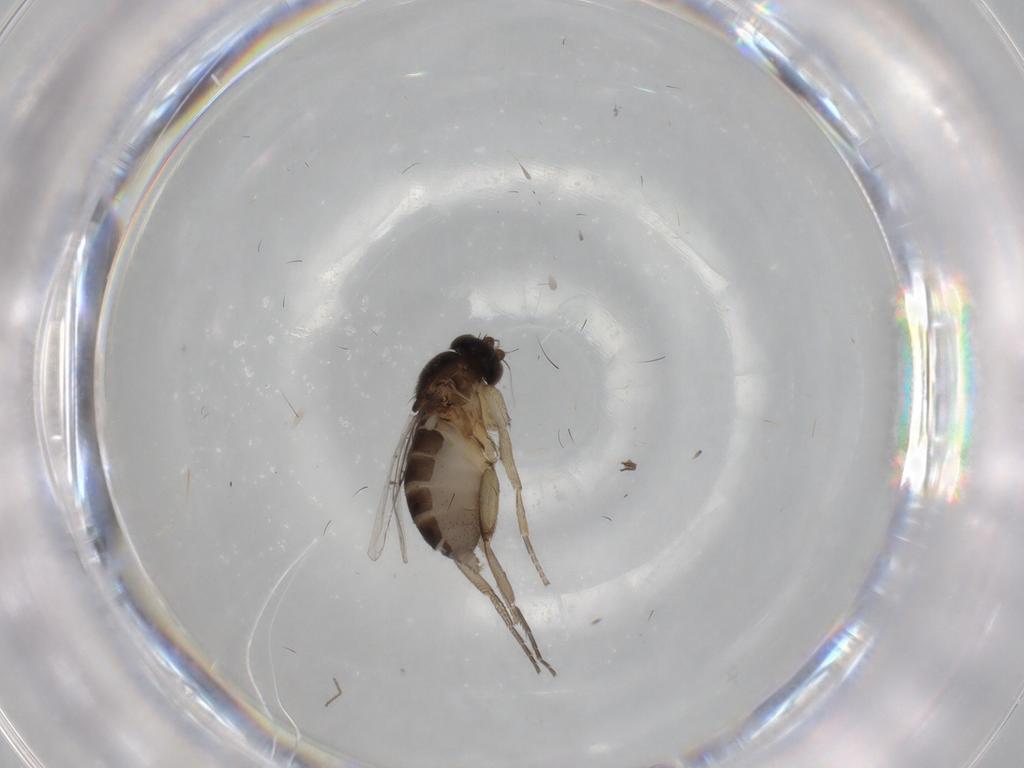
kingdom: Animalia
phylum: Arthropoda
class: Insecta
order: Diptera
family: Phoridae
